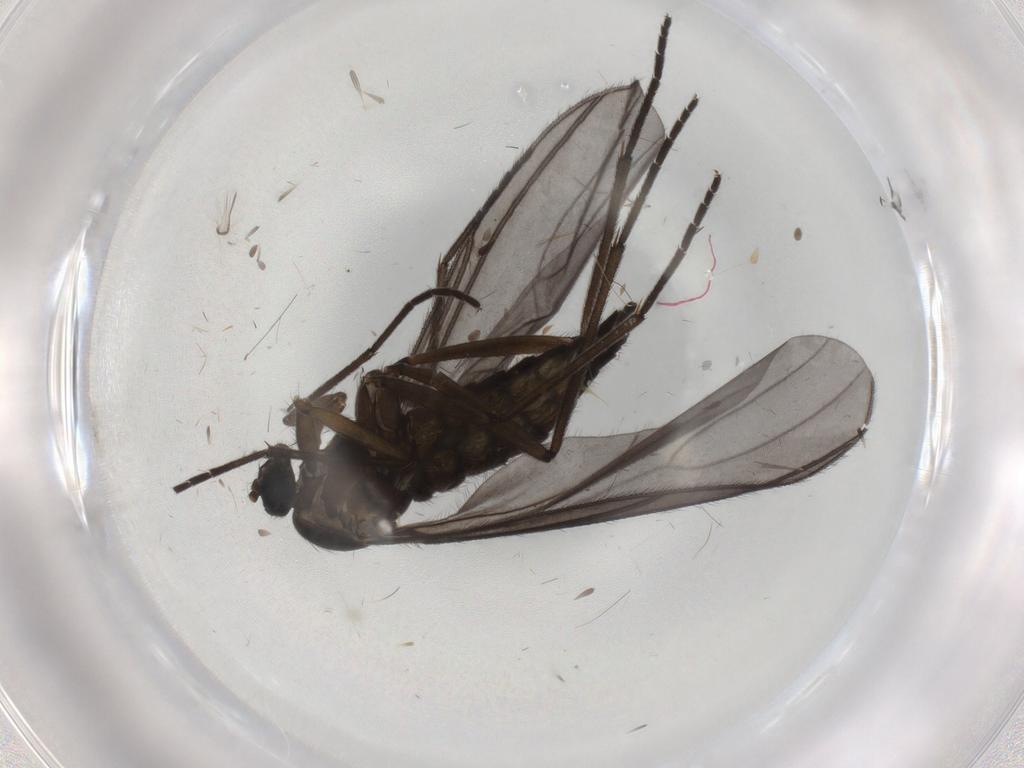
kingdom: Animalia
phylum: Arthropoda
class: Insecta
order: Diptera
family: Sciaridae
